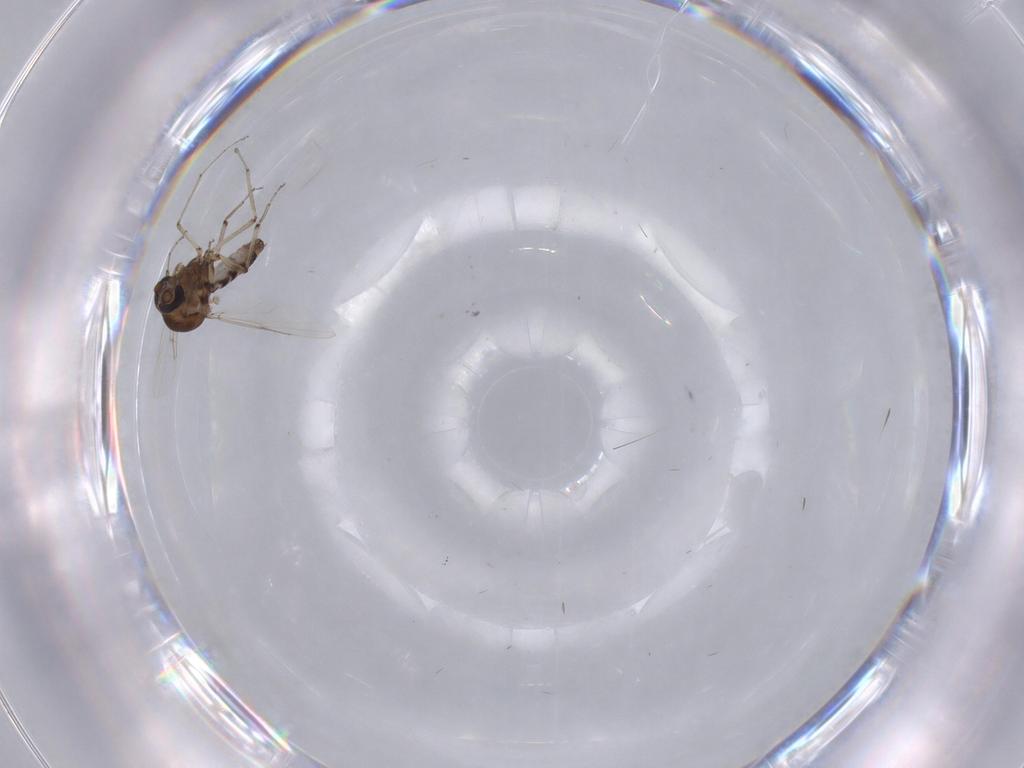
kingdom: Animalia
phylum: Arthropoda
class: Insecta
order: Diptera
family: Ceratopogonidae
